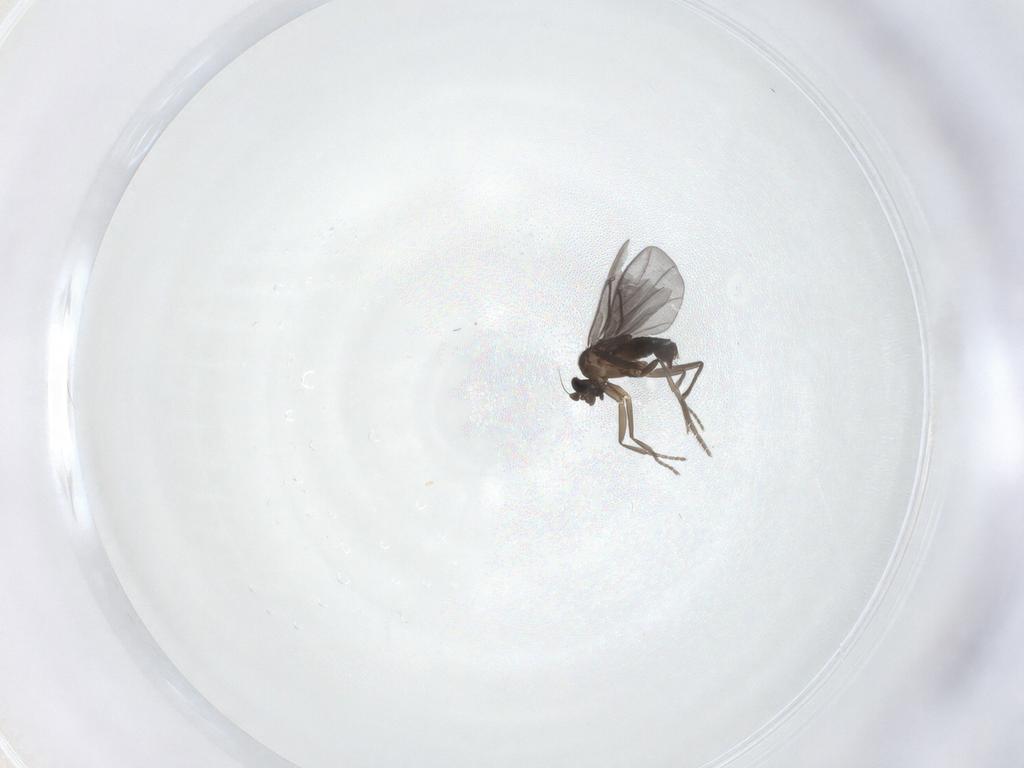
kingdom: Animalia
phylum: Arthropoda
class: Insecta
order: Diptera
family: Phoridae
